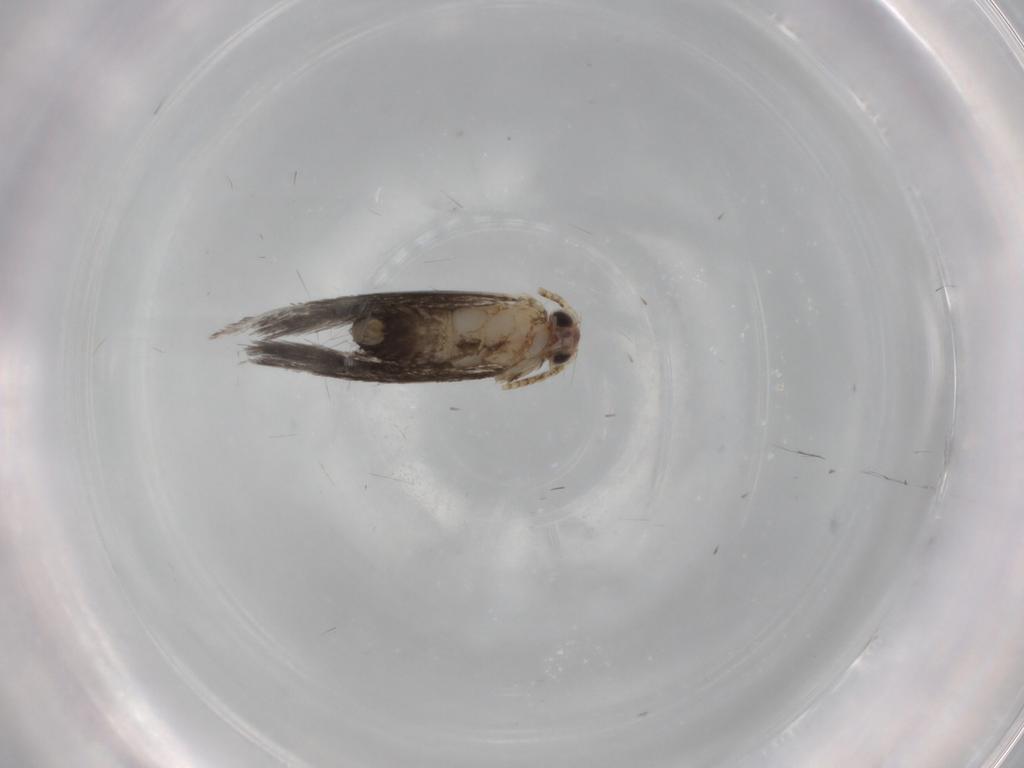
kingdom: Animalia
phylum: Arthropoda
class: Insecta
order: Lepidoptera
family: Tineidae
